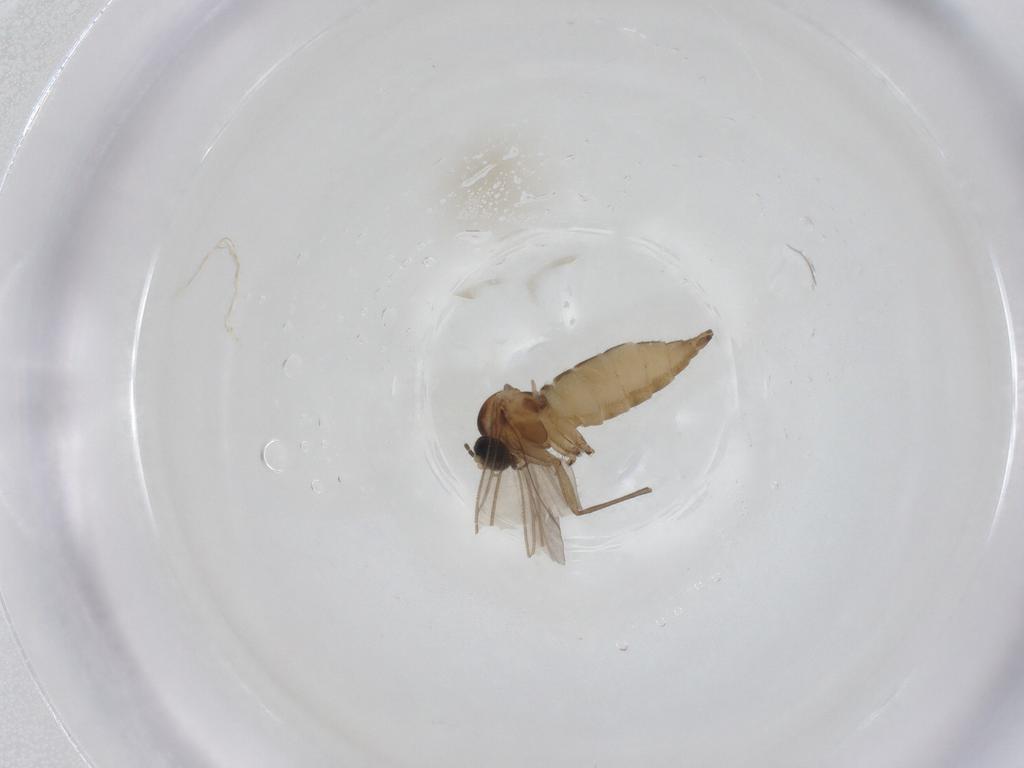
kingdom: Animalia
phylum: Arthropoda
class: Insecta
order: Diptera
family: Sciaridae
